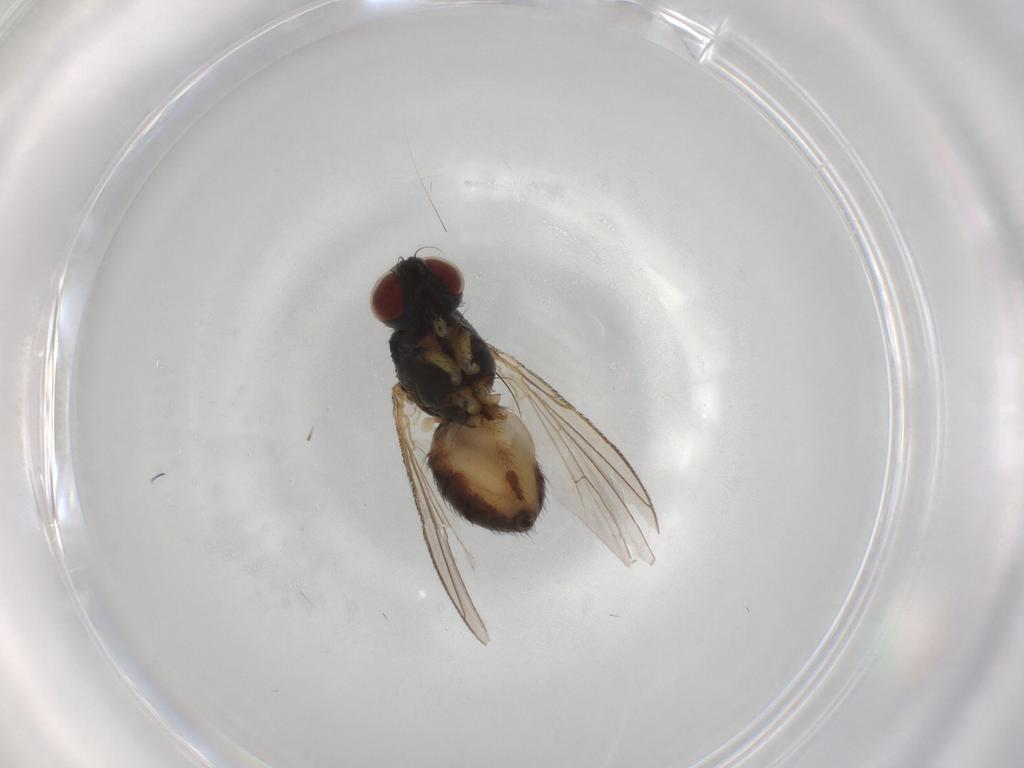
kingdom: Animalia
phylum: Arthropoda
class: Insecta
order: Diptera
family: Muscidae
